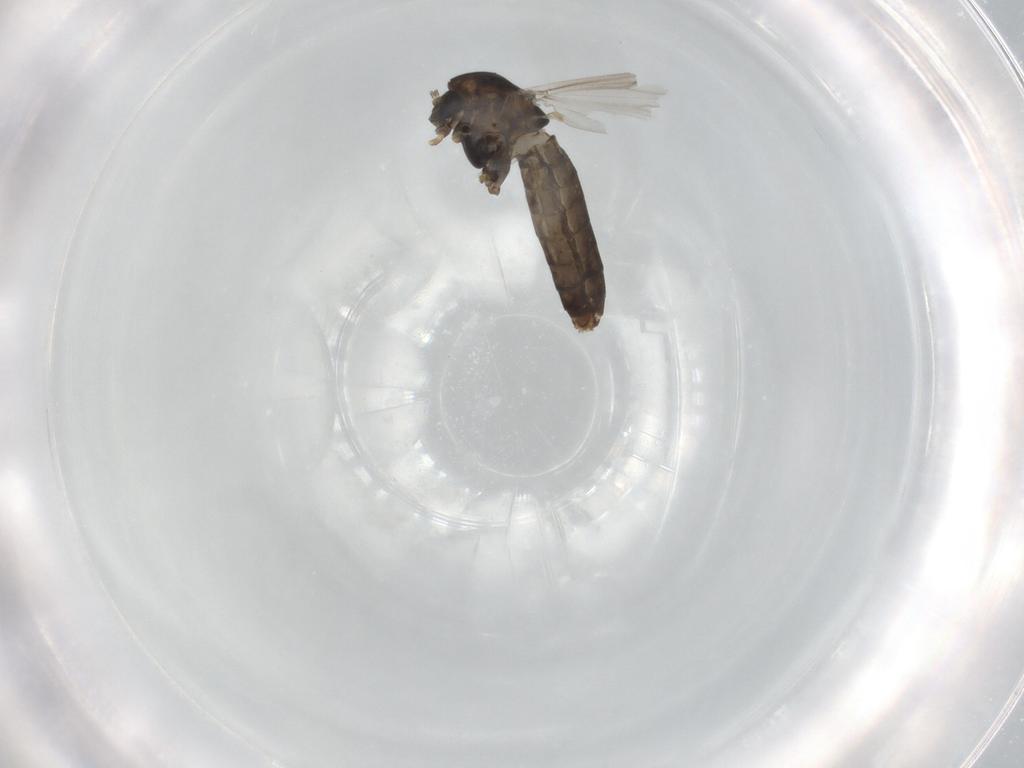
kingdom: Animalia
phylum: Arthropoda
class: Insecta
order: Diptera
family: Chironomidae
